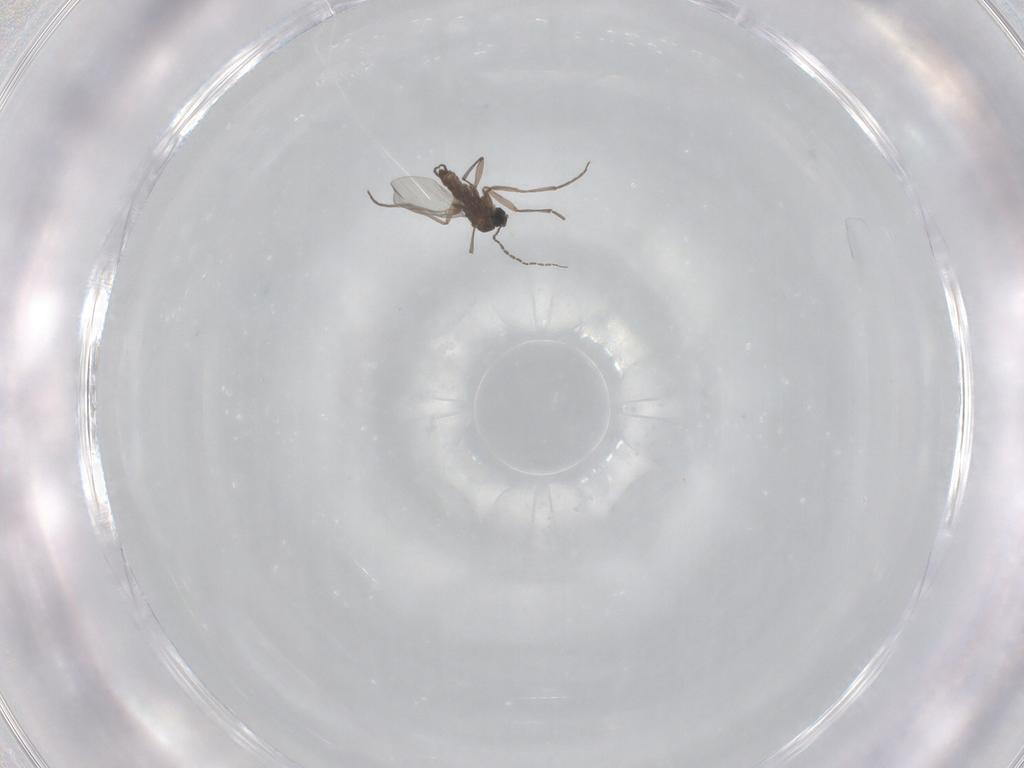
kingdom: Animalia
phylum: Arthropoda
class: Insecta
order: Diptera
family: Sciaridae
